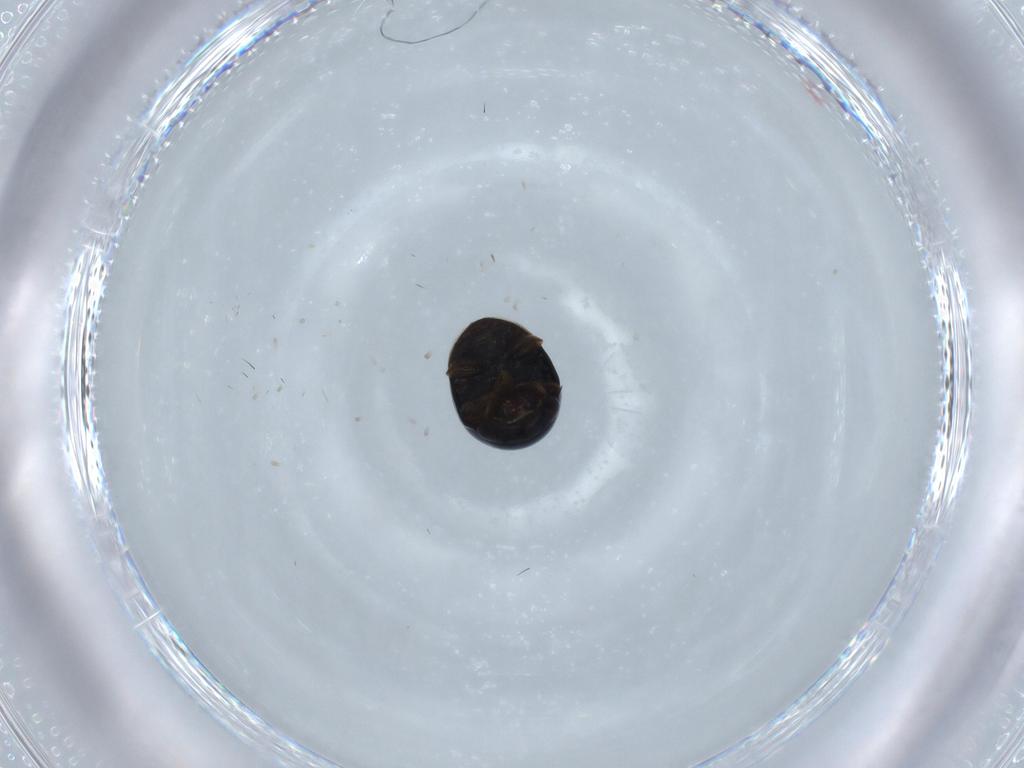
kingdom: Animalia
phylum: Arthropoda
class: Insecta
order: Coleoptera
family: Cybocephalidae
